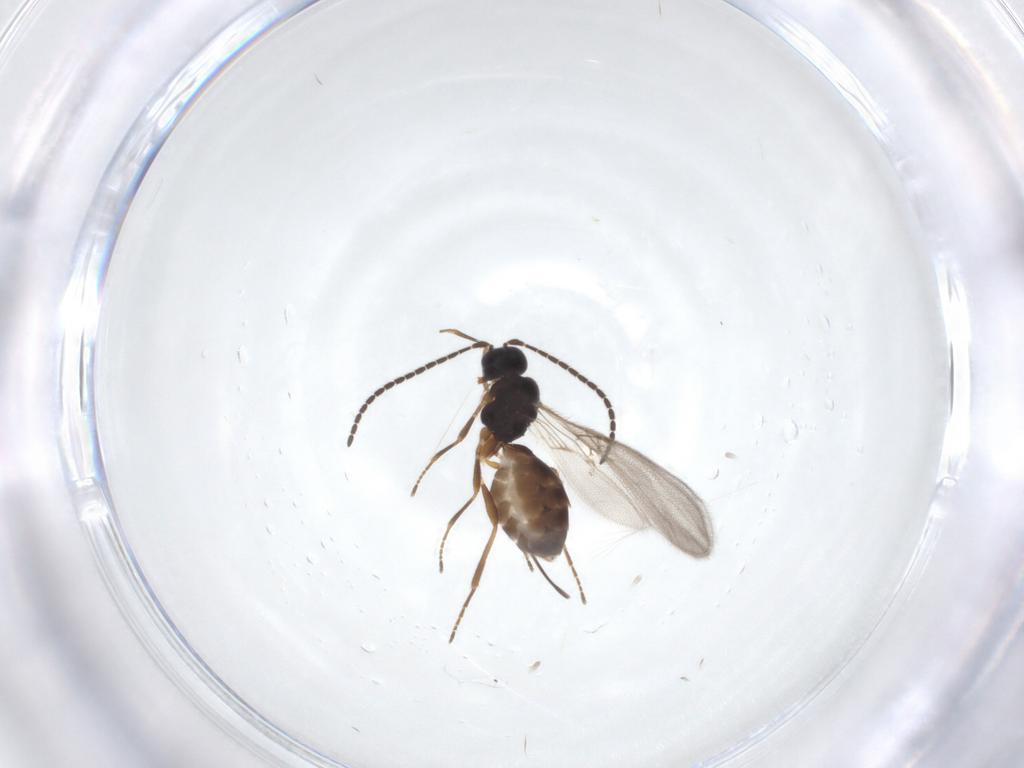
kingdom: Animalia
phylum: Arthropoda
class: Insecta
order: Hymenoptera
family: Braconidae
